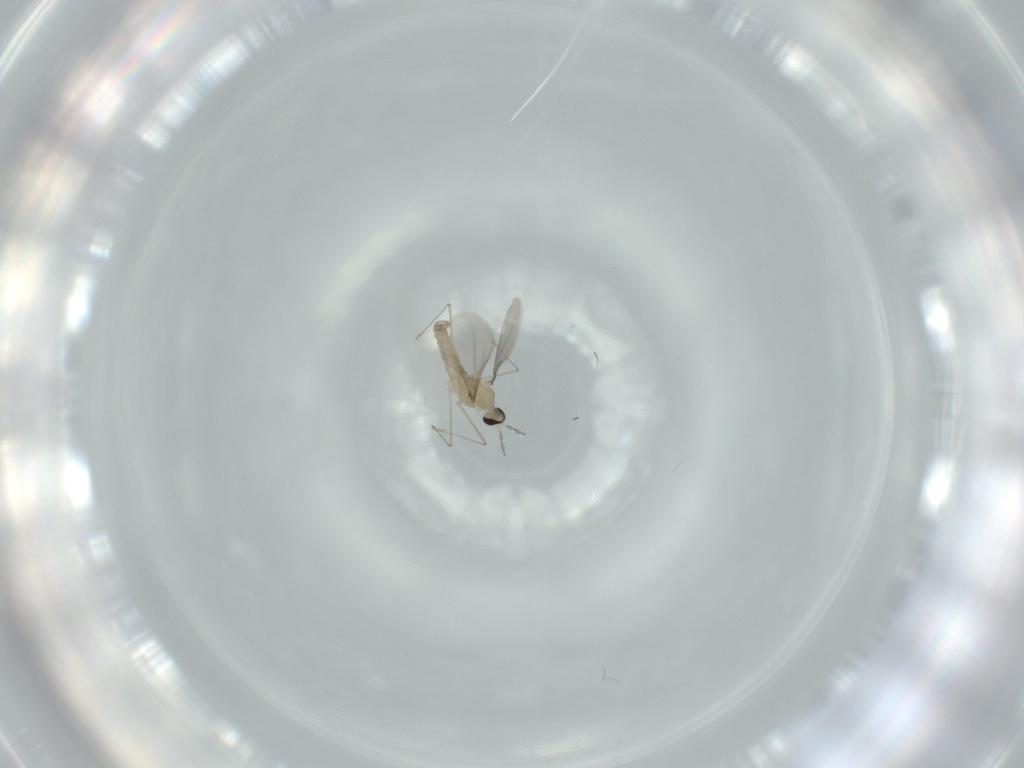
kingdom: Animalia
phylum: Arthropoda
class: Insecta
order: Diptera
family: Cecidomyiidae
